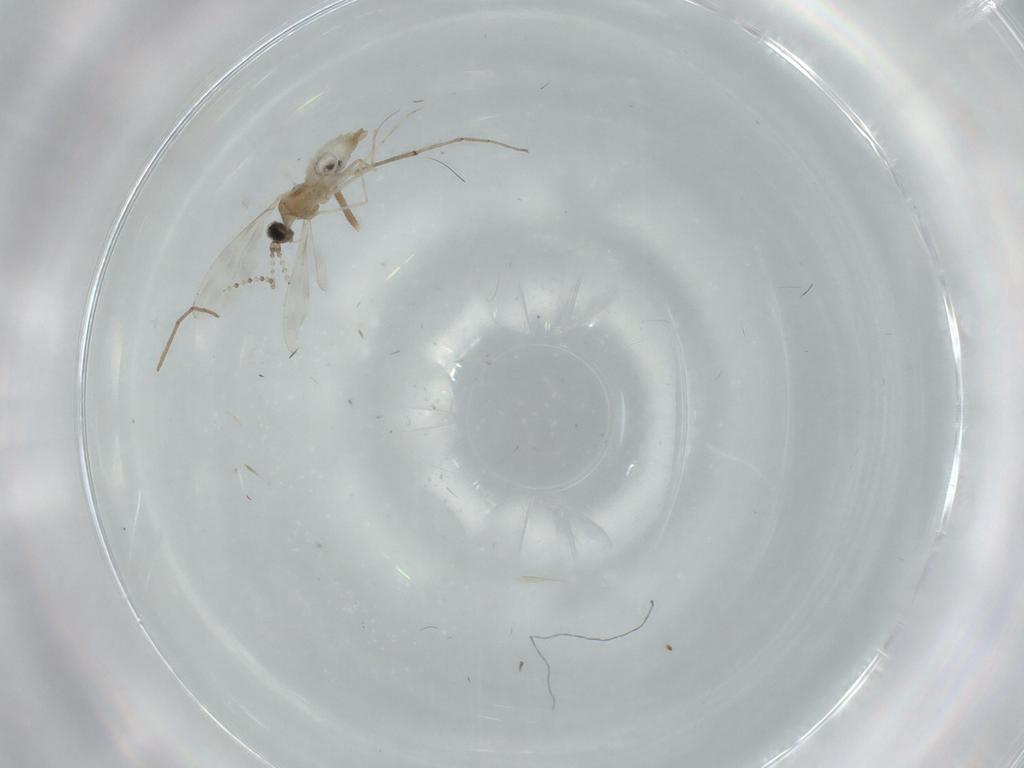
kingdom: Animalia
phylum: Arthropoda
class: Insecta
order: Diptera
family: Cecidomyiidae
